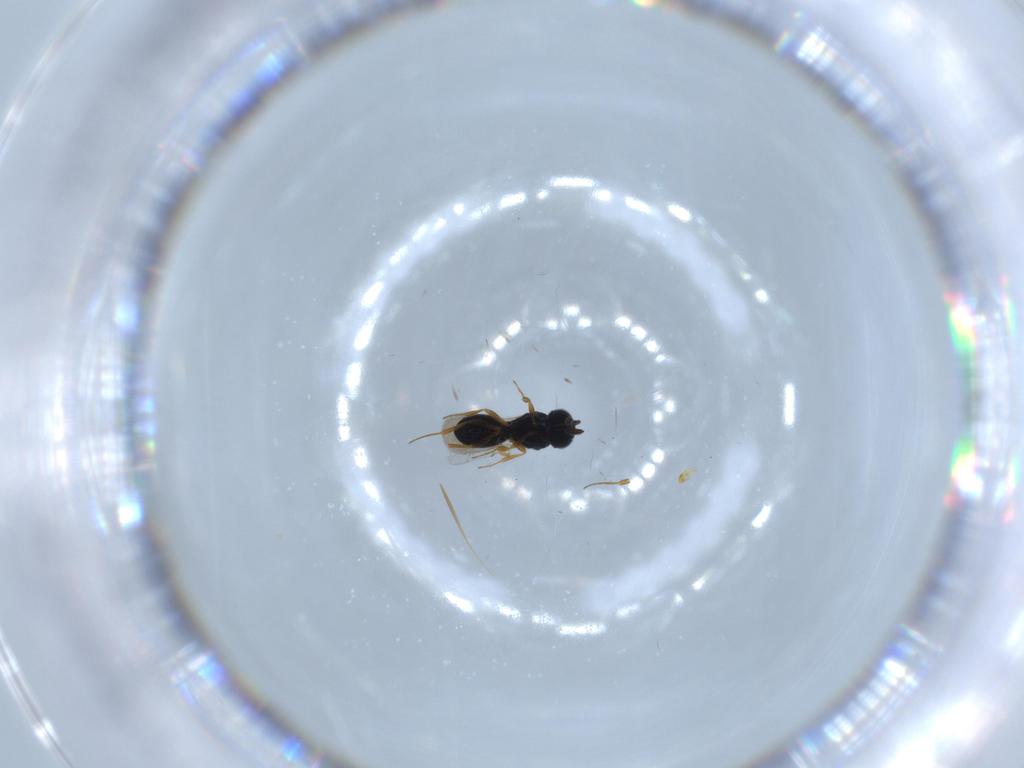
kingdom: Animalia
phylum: Arthropoda
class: Insecta
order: Hymenoptera
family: Scelionidae
